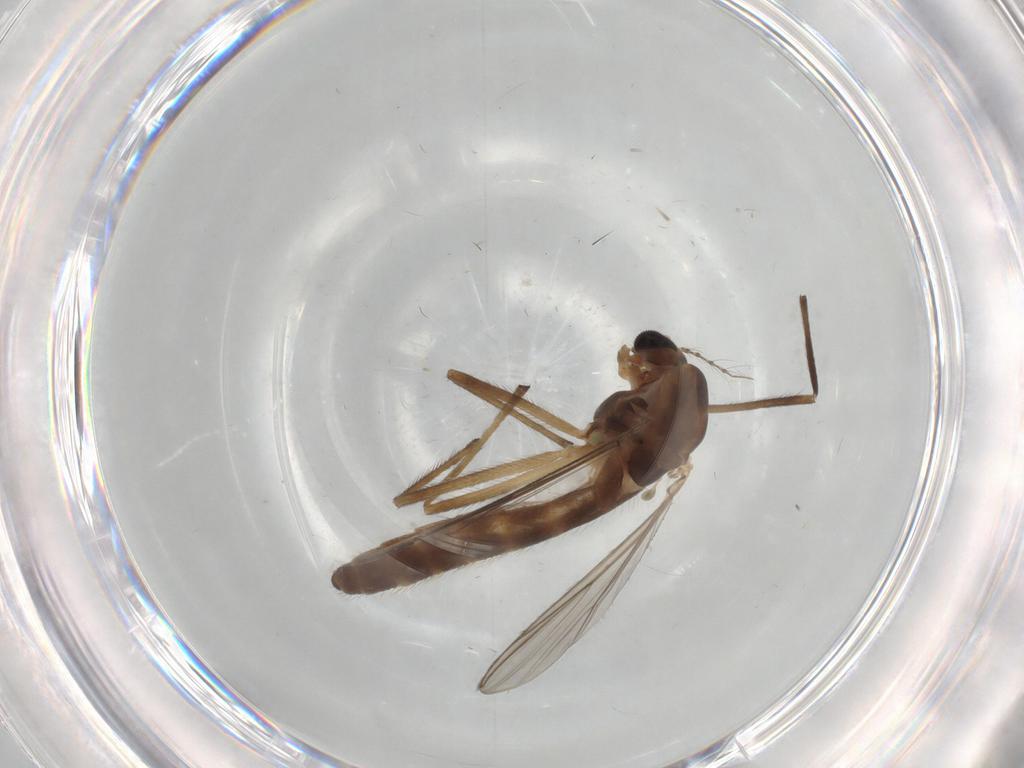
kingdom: Animalia
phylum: Arthropoda
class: Insecta
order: Diptera
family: Chironomidae
